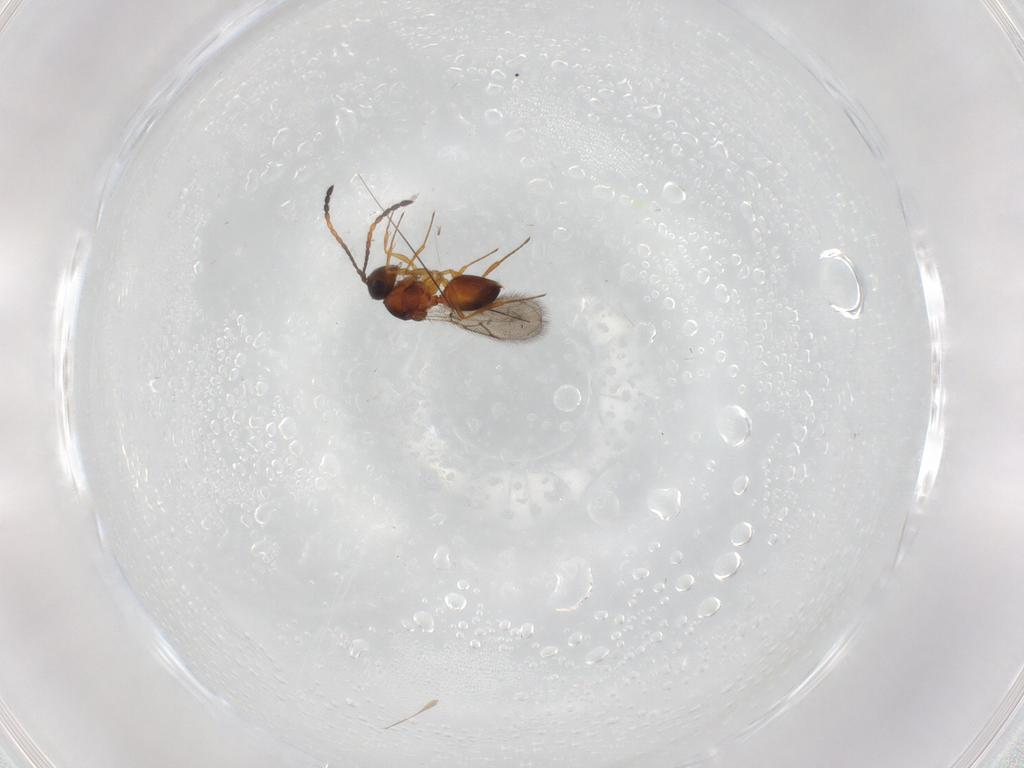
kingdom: Animalia
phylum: Arthropoda
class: Insecta
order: Hymenoptera
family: Figitidae
